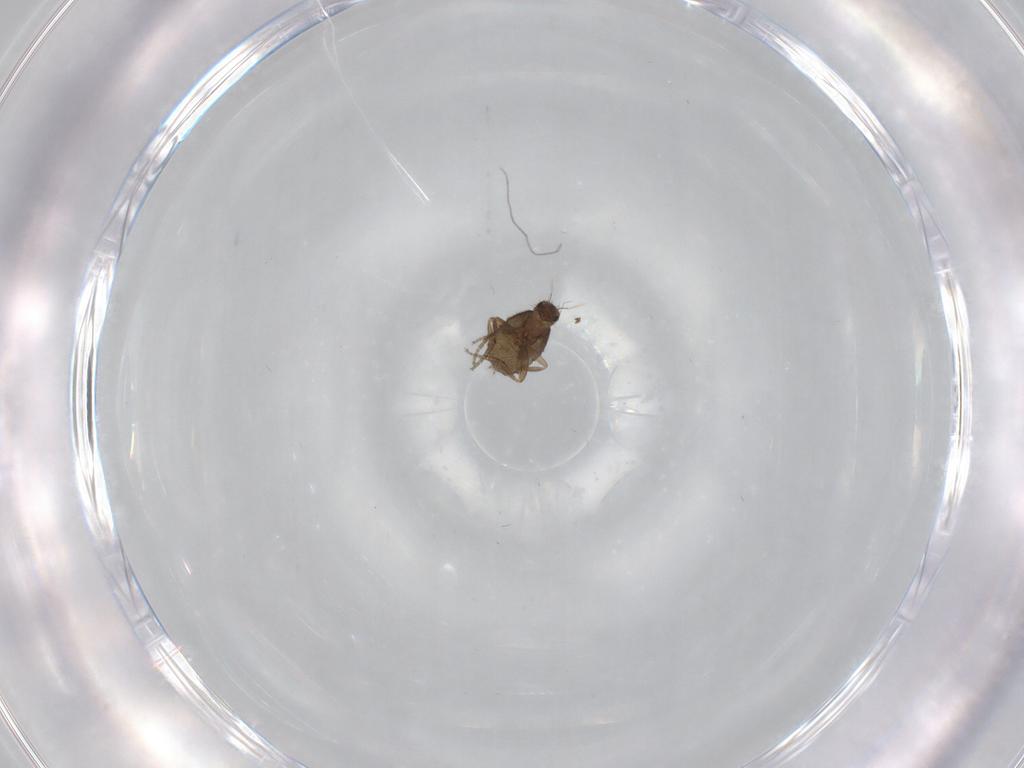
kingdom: Animalia
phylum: Arthropoda
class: Insecta
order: Diptera
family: Phoridae
